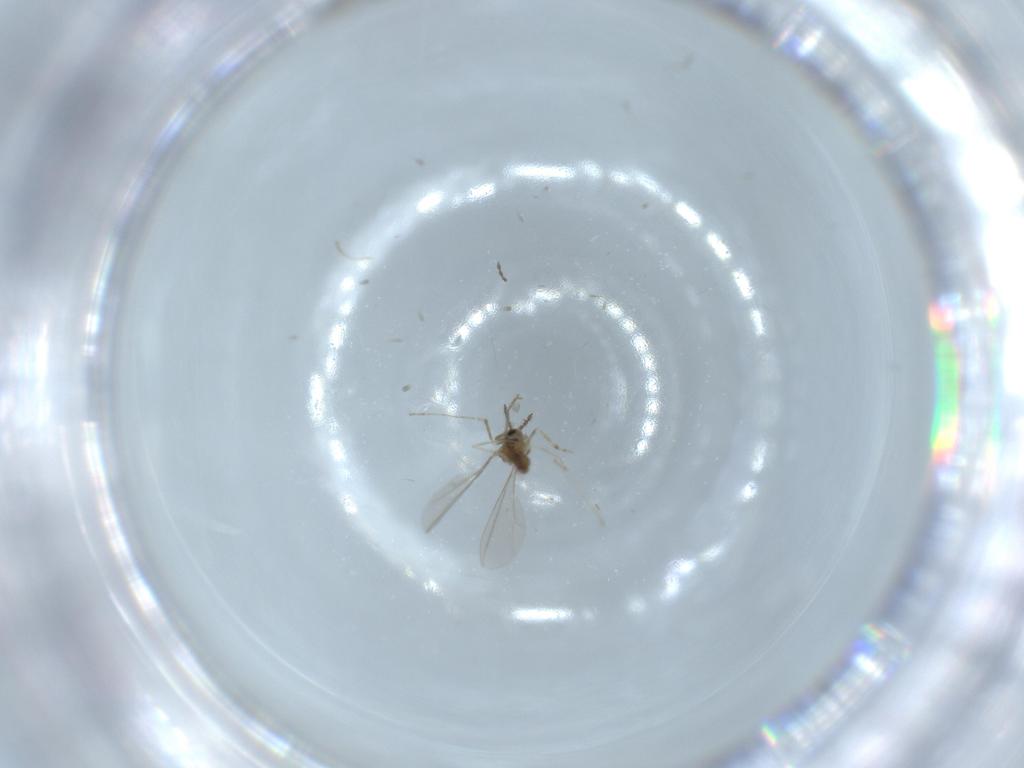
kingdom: Animalia
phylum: Arthropoda
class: Insecta
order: Diptera
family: Cecidomyiidae
